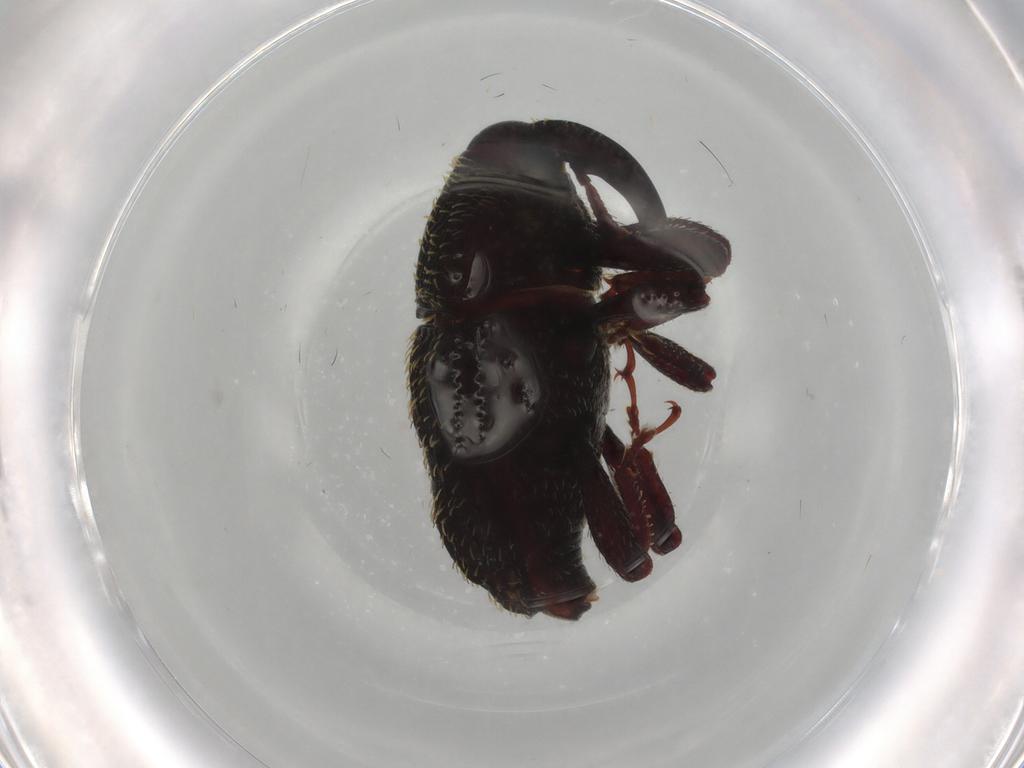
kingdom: Animalia
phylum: Arthropoda
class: Insecta
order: Coleoptera
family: Curculionidae
